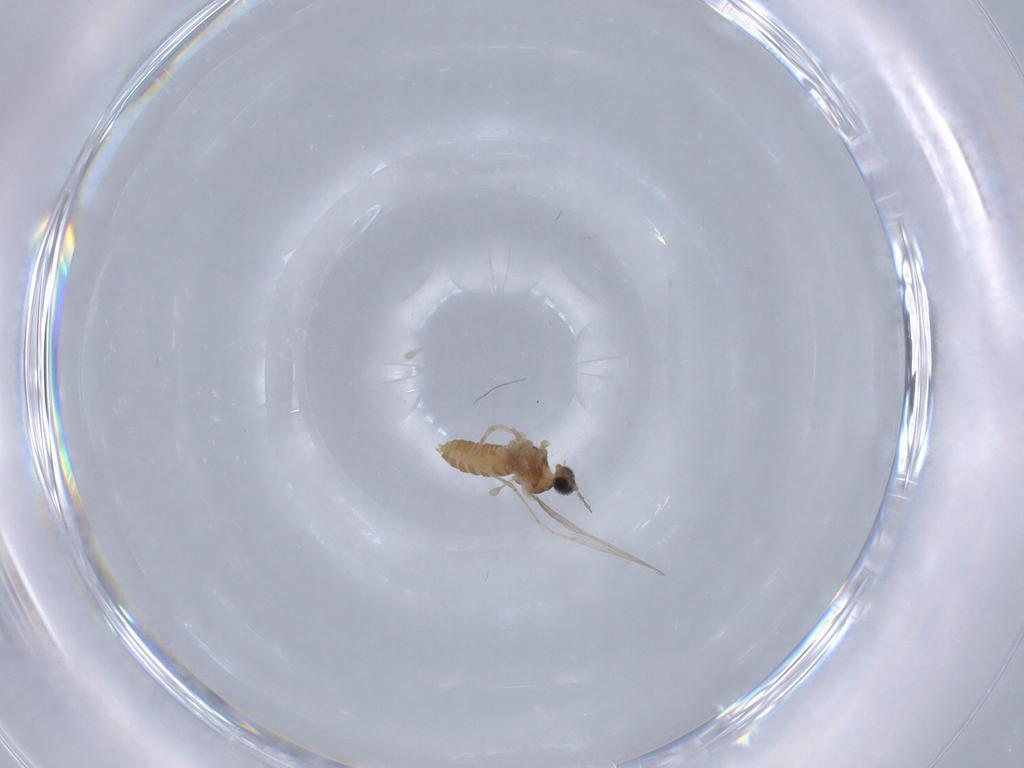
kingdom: Animalia
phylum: Arthropoda
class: Insecta
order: Diptera
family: Cecidomyiidae
